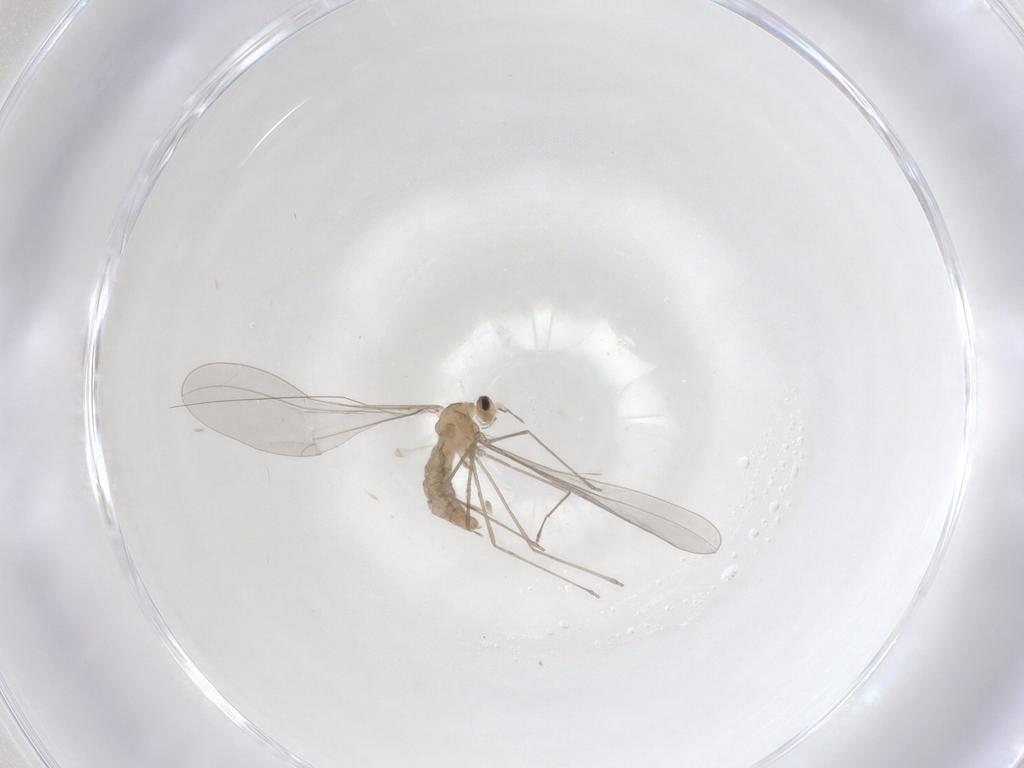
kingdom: Animalia
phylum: Arthropoda
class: Insecta
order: Diptera
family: Cecidomyiidae
